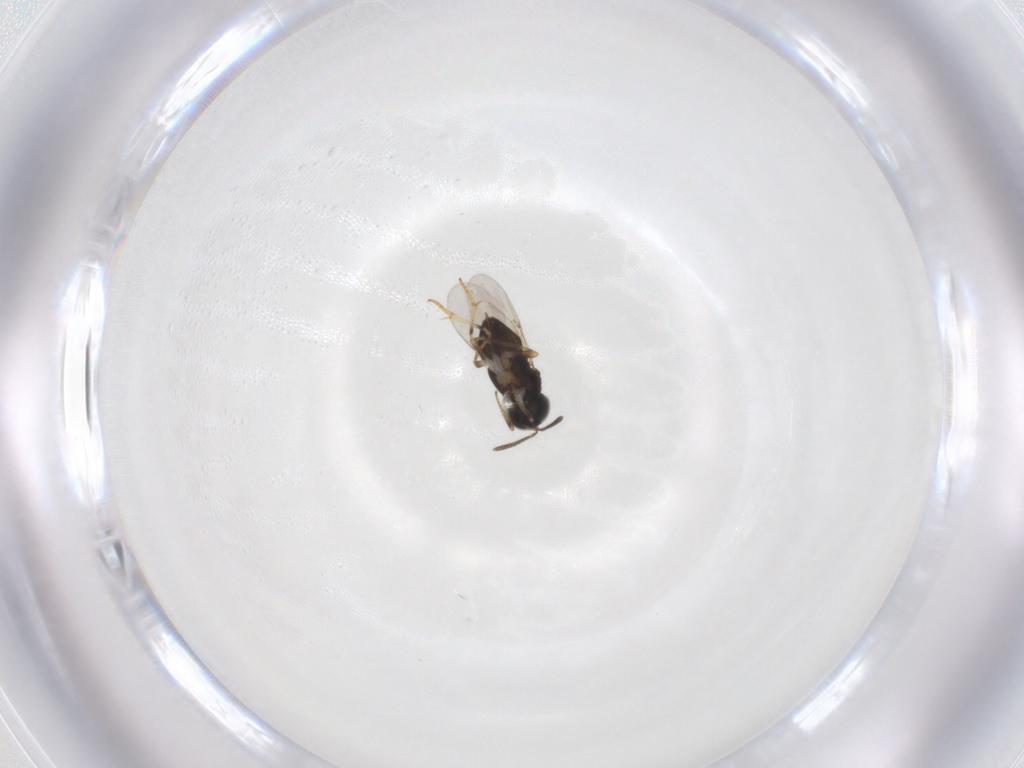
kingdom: Animalia
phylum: Arthropoda
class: Insecta
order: Hymenoptera
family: Encyrtidae
